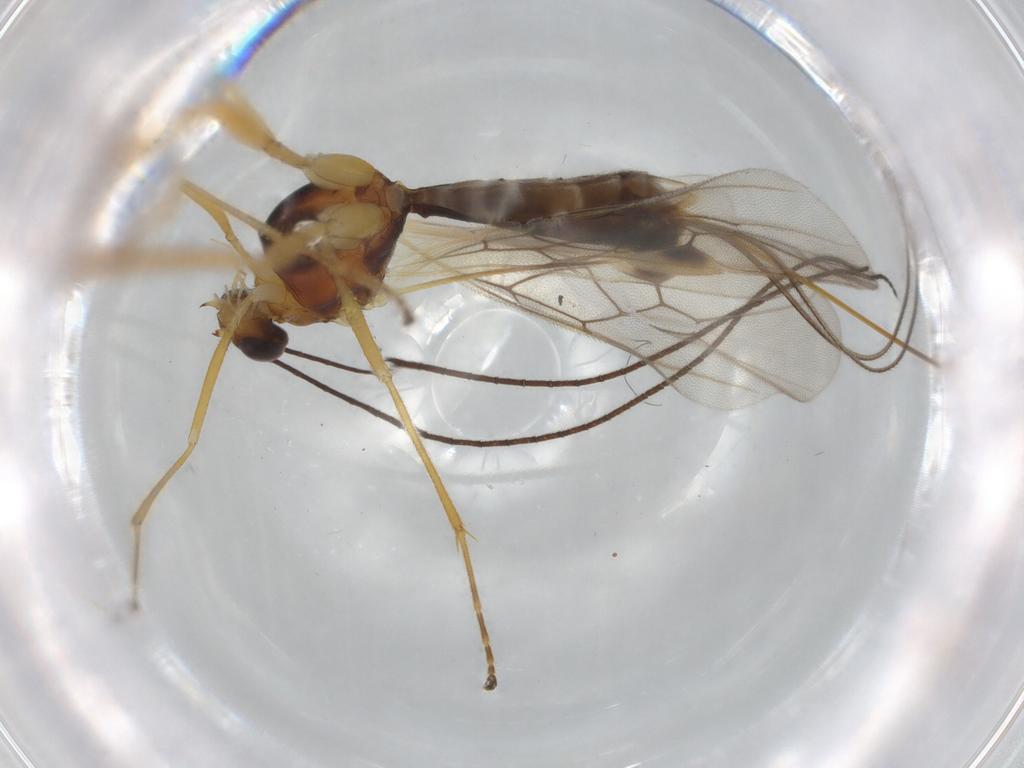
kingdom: Animalia
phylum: Arthropoda
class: Insecta
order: Hymenoptera
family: Braconidae
